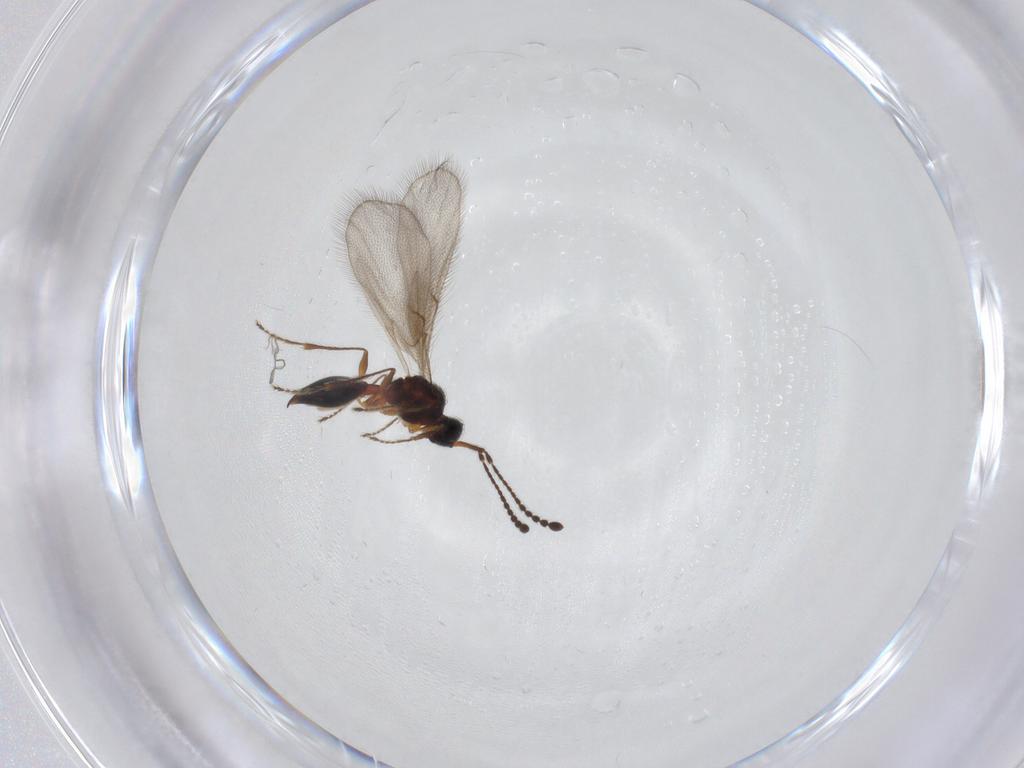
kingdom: Animalia
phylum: Arthropoda
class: Insecta
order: Hymenoptera
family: Diapriidae
